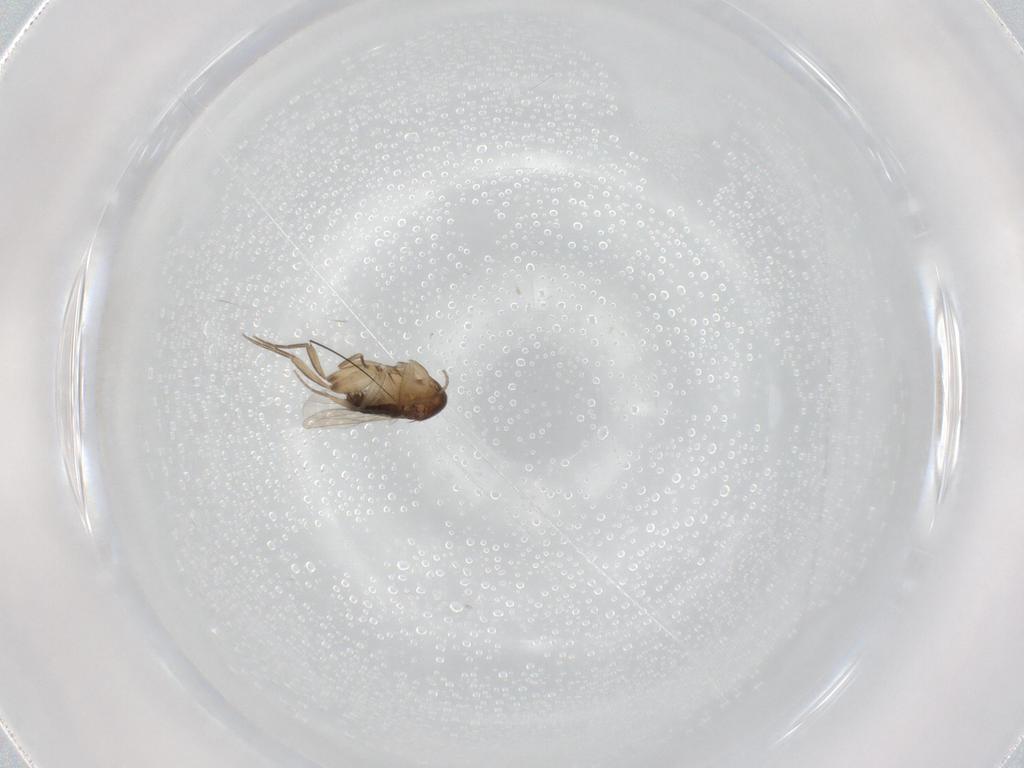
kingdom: Animalia
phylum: Arthropoda
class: Insecta
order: Diptera
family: Phoridae
